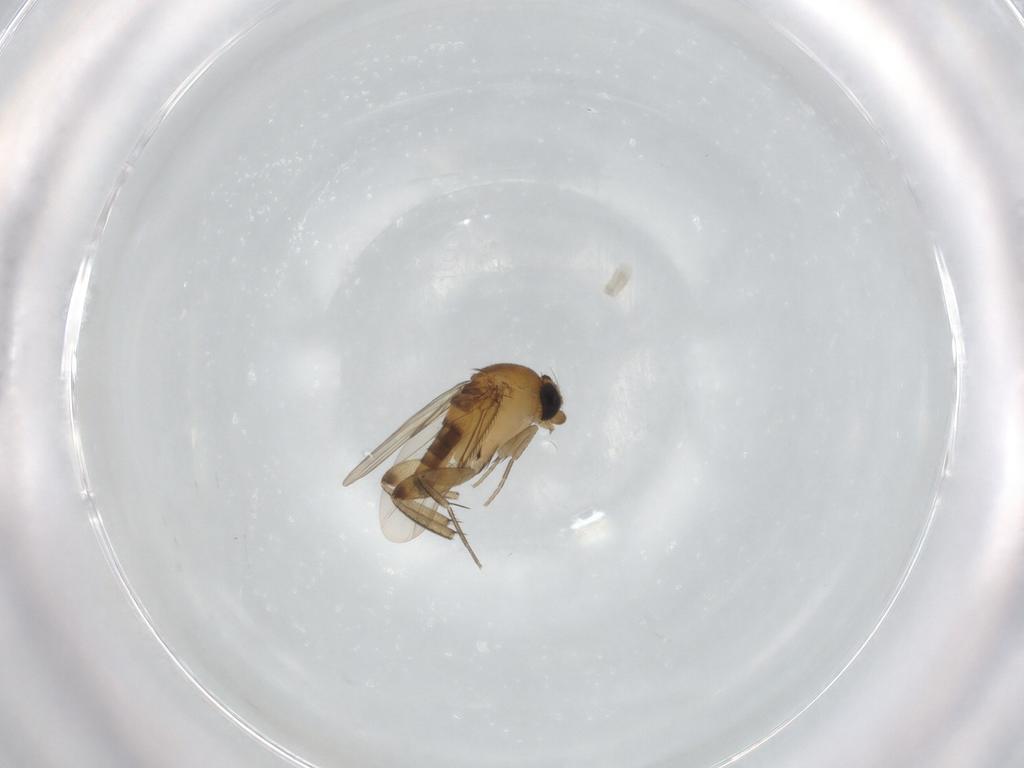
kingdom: Animalia
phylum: Arthropoda
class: Insecta
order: Diptera
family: Phoridae
